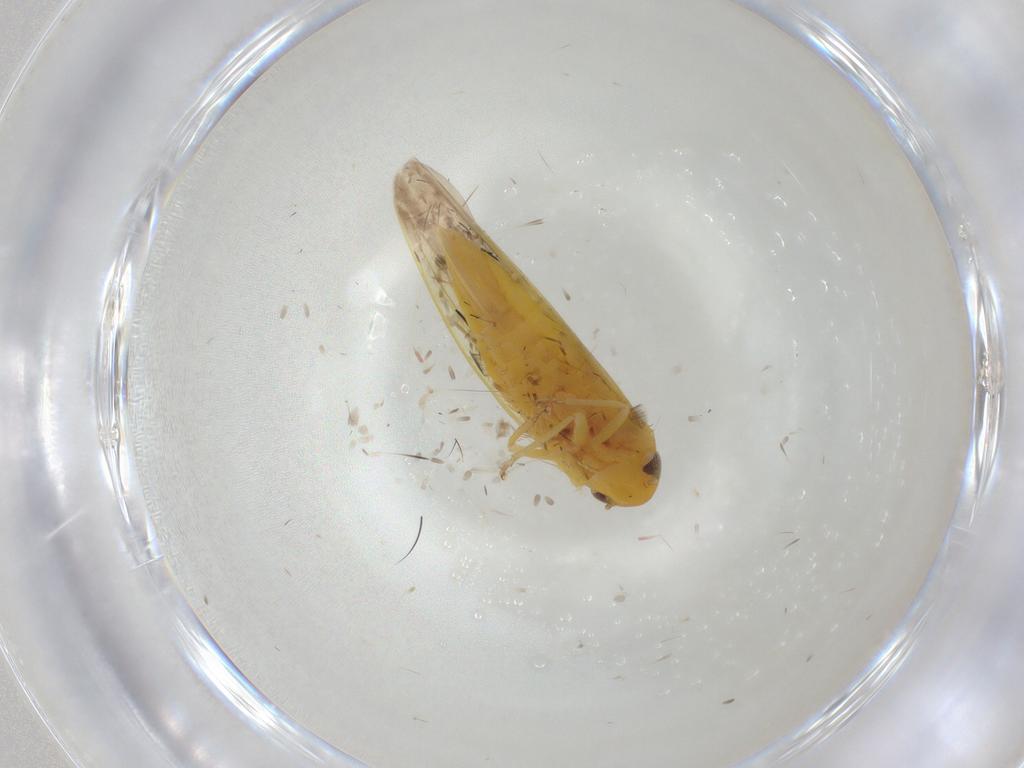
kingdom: Animalia
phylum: Arthropoda
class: Insecta
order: Hemiptera
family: Cicadellidae
